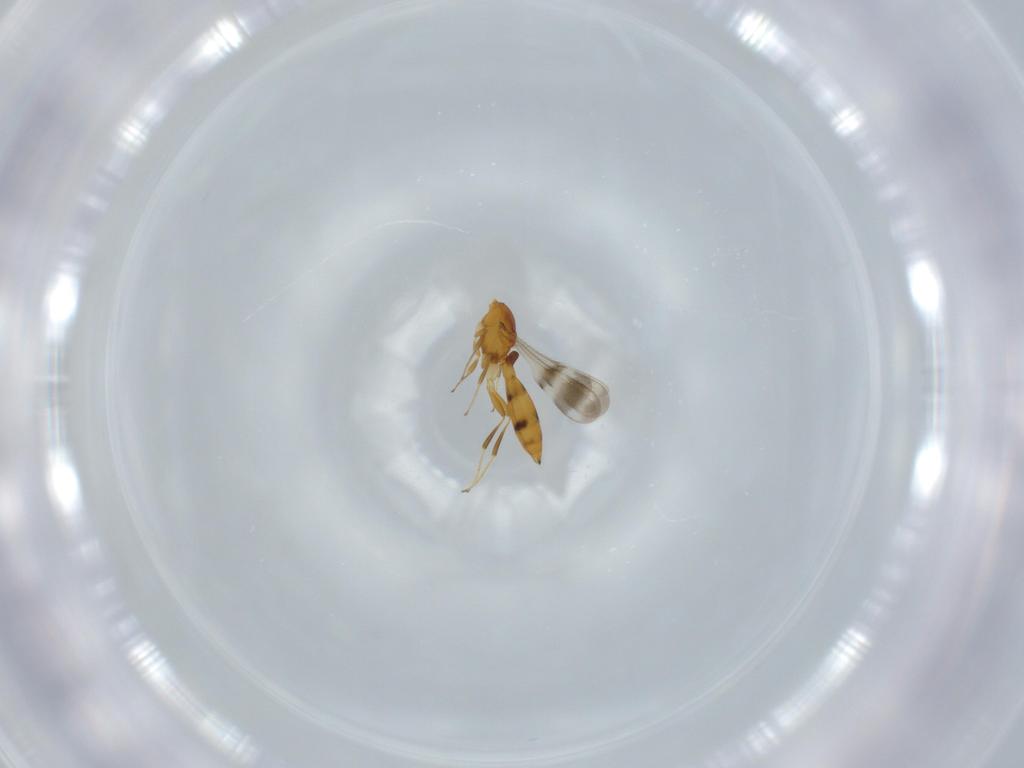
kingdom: Animalia
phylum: Arthropoda
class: Insecta
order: Hymenoptera
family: Scelionidae
